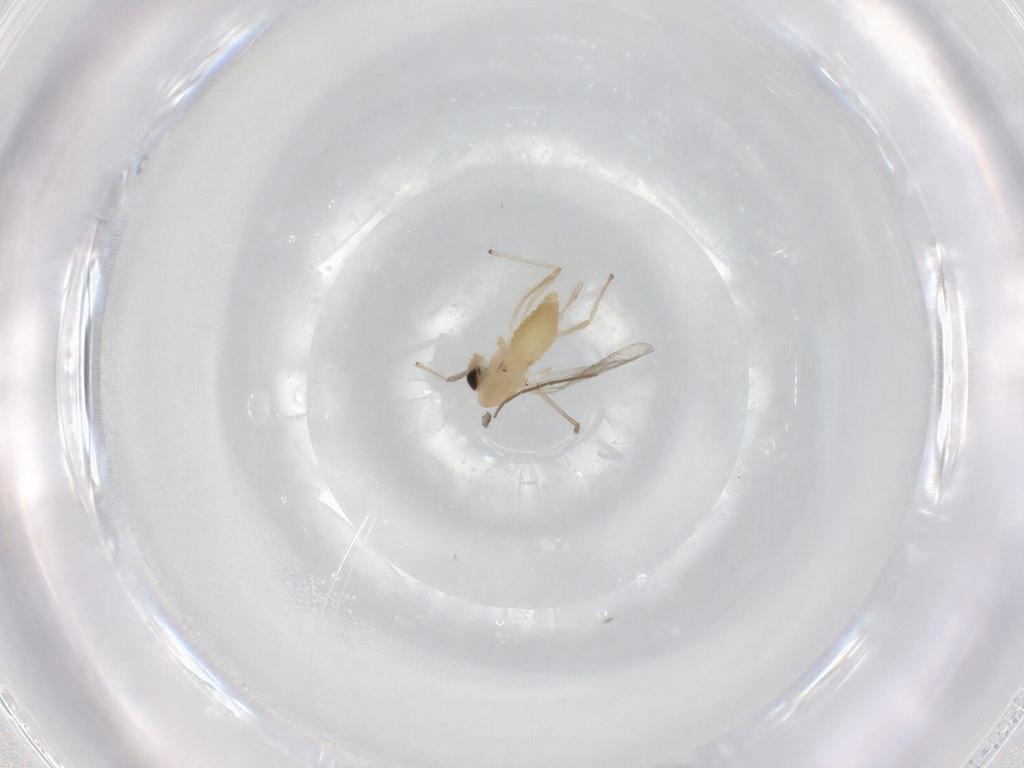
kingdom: Animalia
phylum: Arthropoda
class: Insecta
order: Diptera
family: Chironomidae
